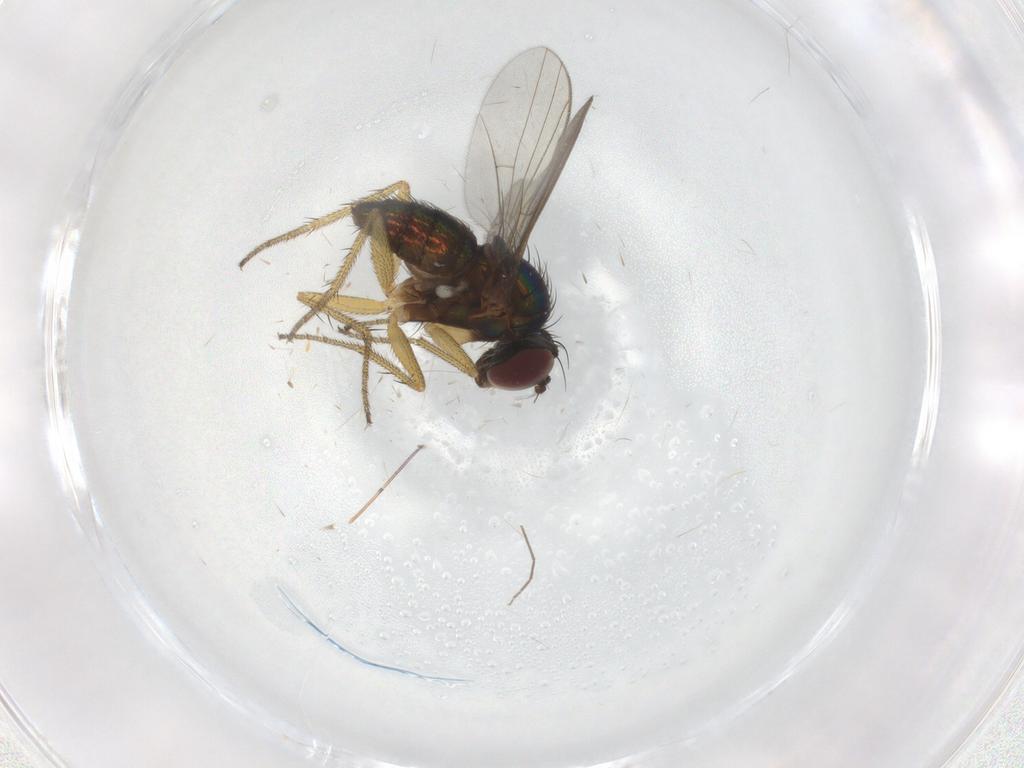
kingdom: Animalia
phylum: Arthropoda
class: Insecta
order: Diptera
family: Dolichopodidae
